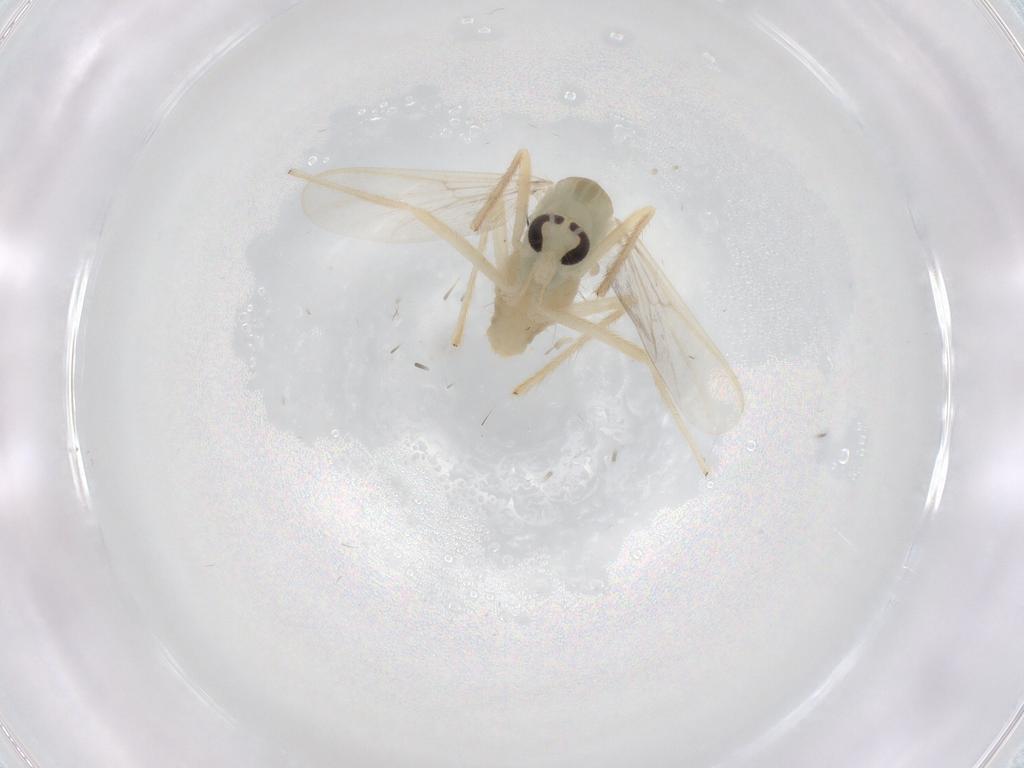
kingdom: Animalia
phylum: Arthropoda
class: Insecta
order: Diptera
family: Chironomidae
